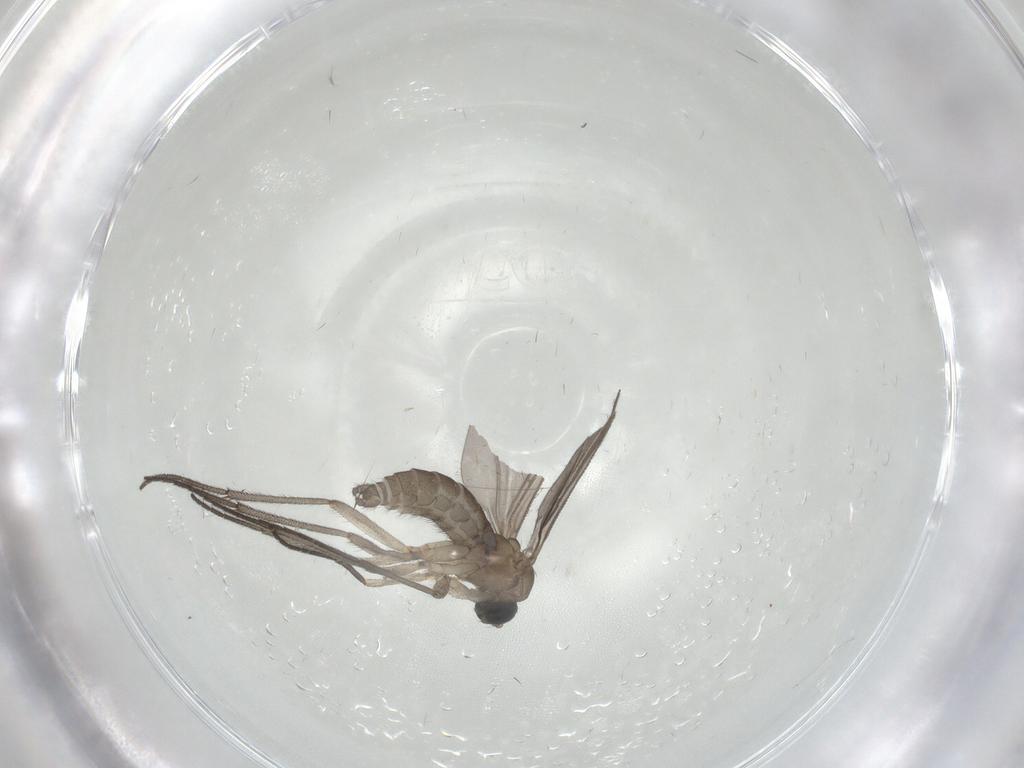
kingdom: Animalia
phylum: Arthropoda
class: Insecta
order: Diptera
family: Sciaridae
